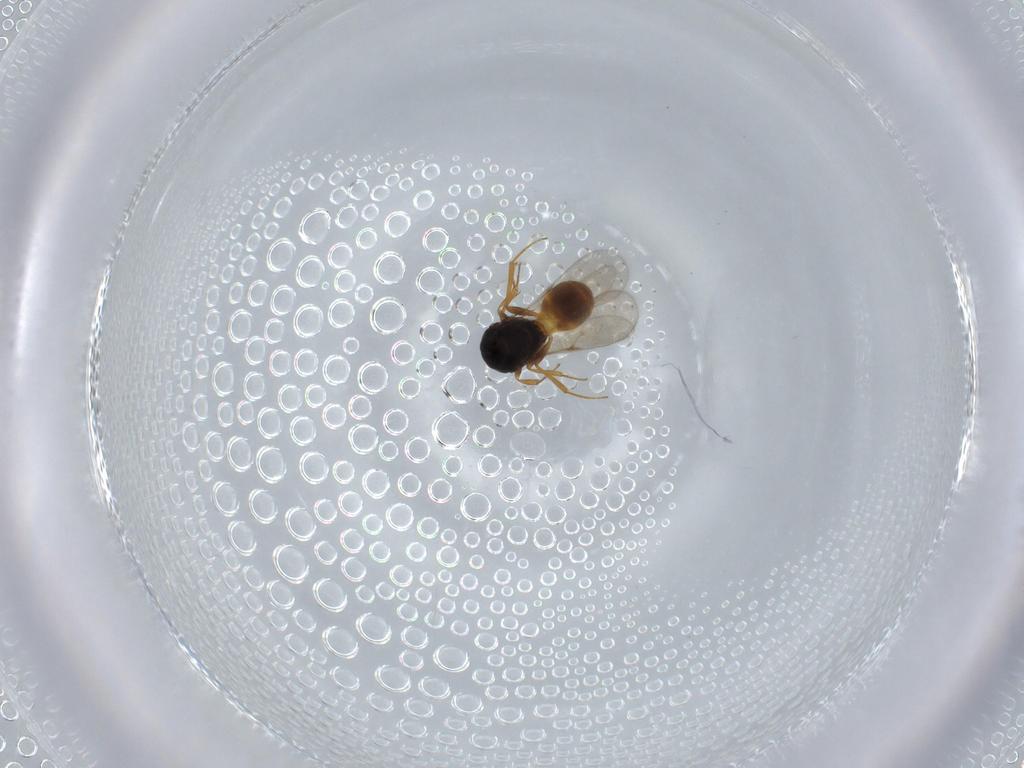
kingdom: Animalia
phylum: Arthropoda
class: Insecta
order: Hymenoptera
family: Scelionidae
